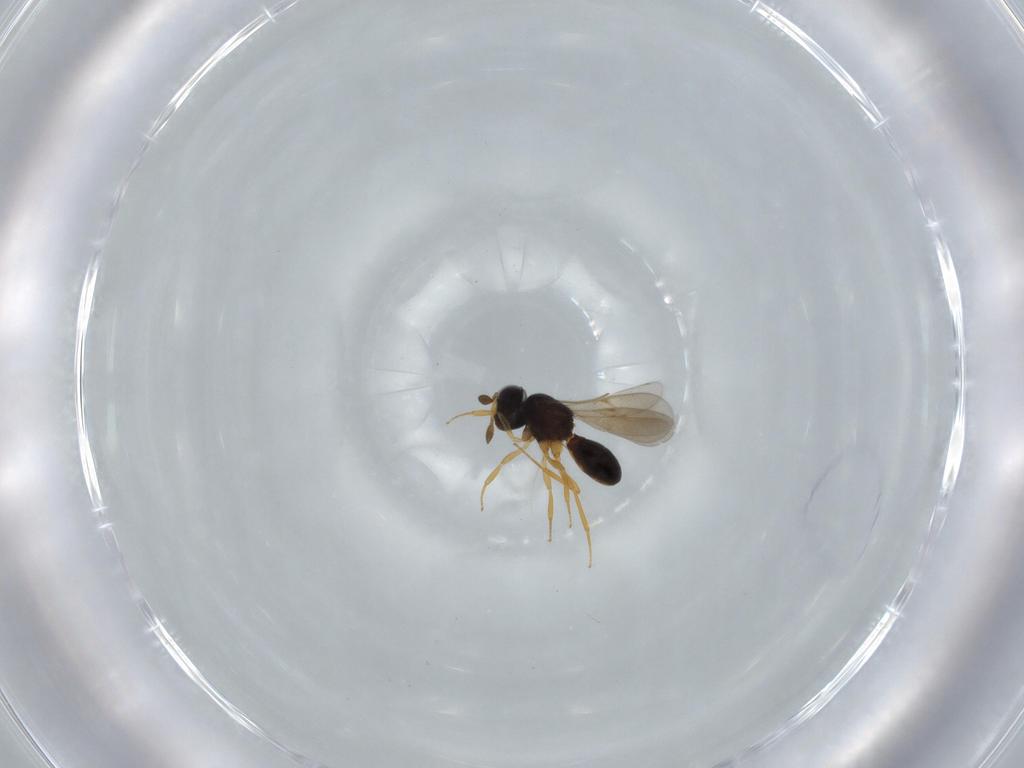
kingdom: Animalia
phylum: Arthropoda
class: Insecta
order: Hymenoptera
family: Scelionidae
